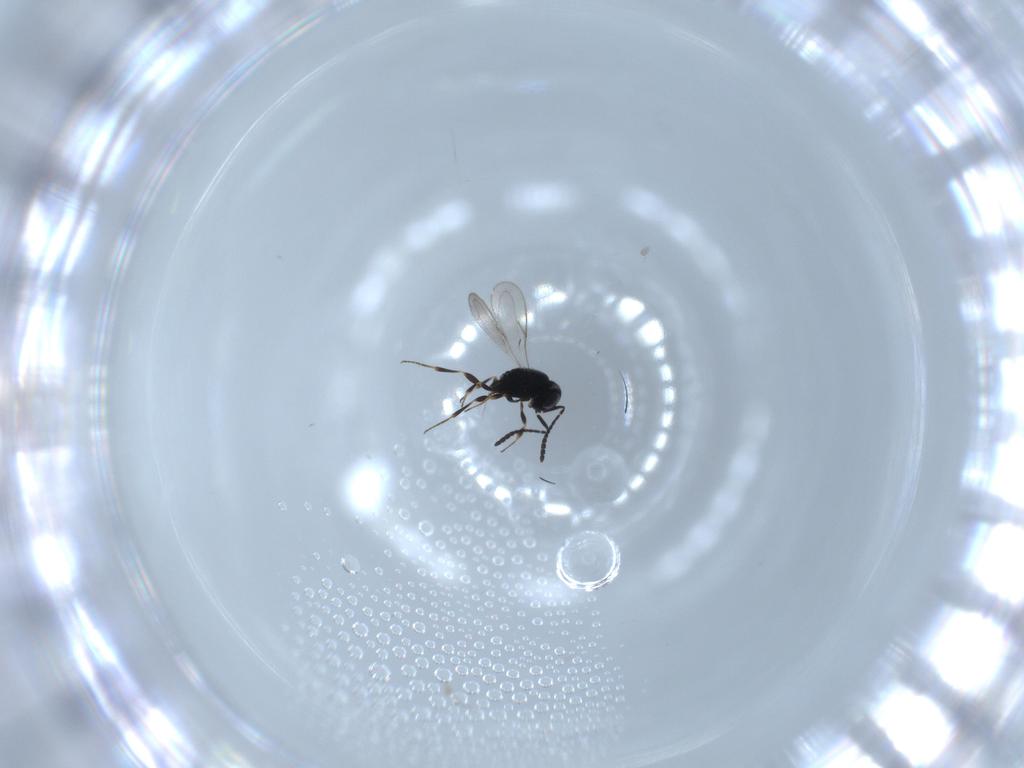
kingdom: Animalia
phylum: Arthropoda
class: Insecta
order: Hymenoptera
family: Scelionidae
